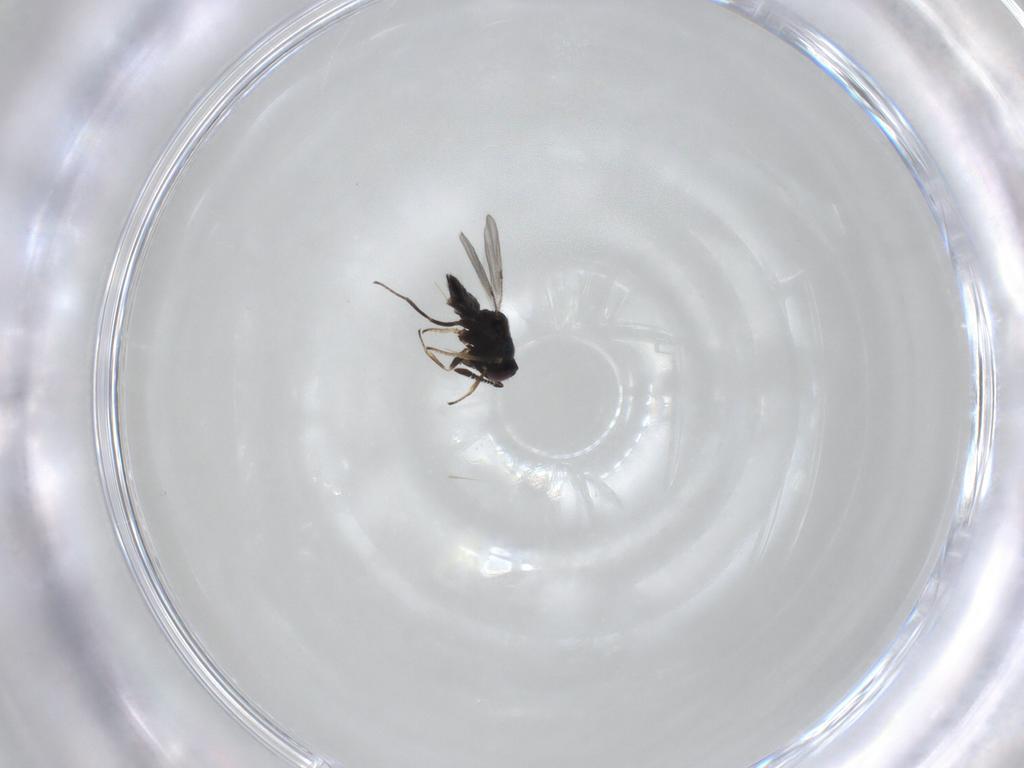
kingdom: Animalia
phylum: Arthropoda
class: Insecta
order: Hymenoptera
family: Encyrtidae
